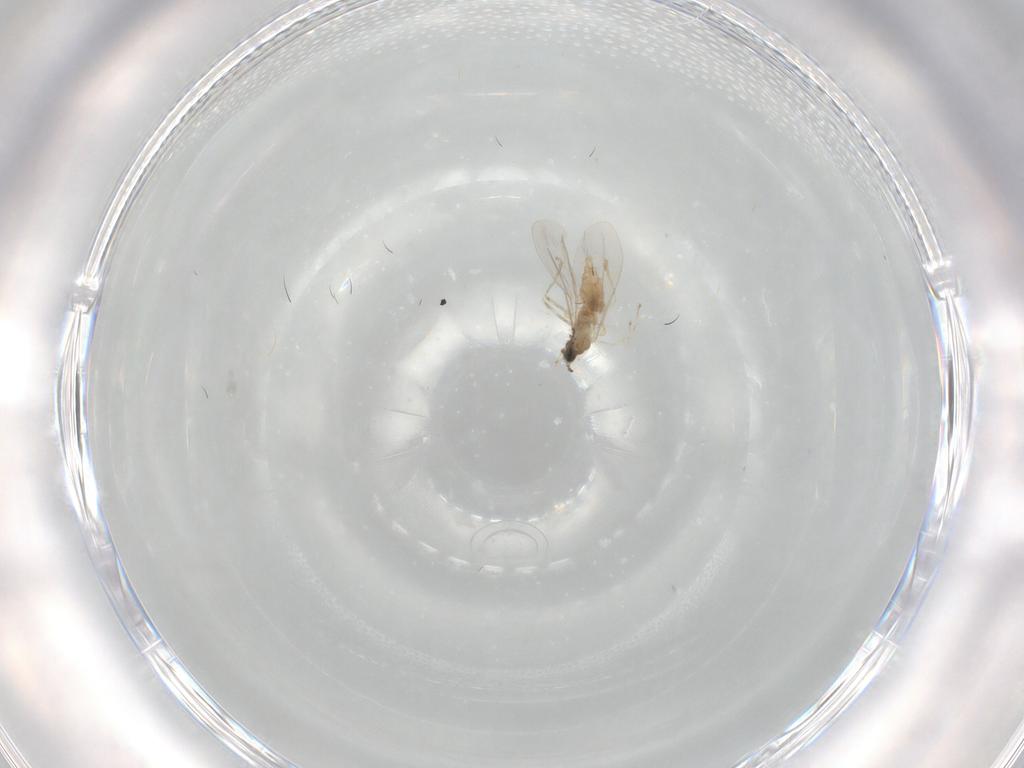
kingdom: Animalia
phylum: Arthropoda
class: Insecta
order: Diptera
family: Cecidomyiidae
